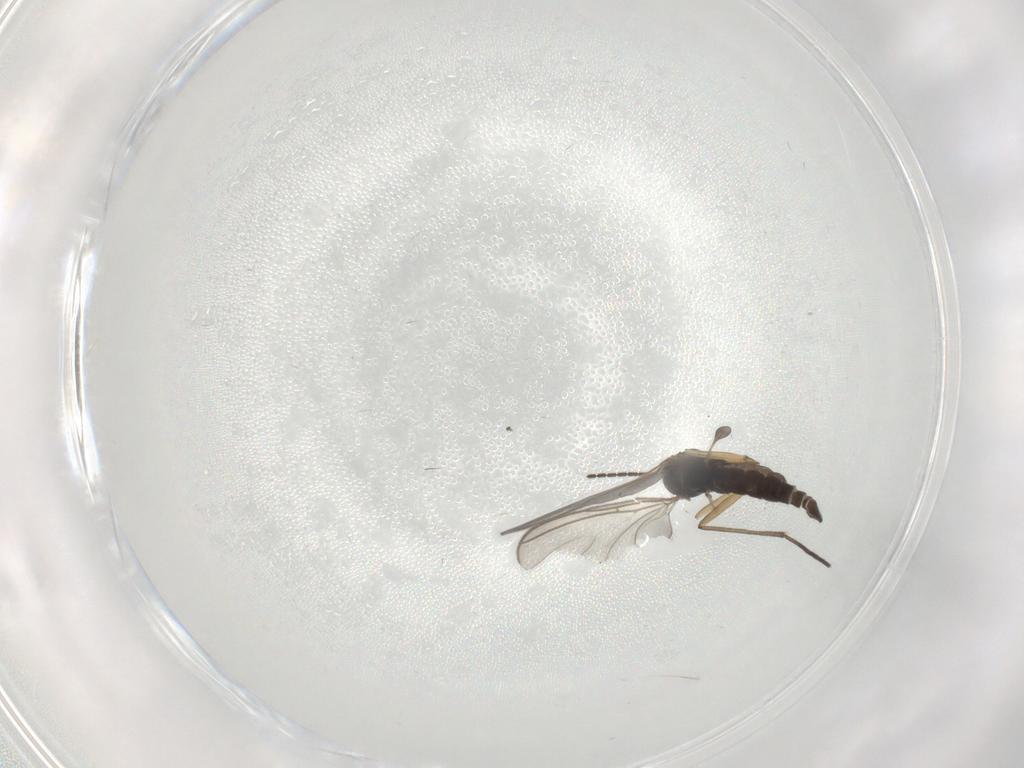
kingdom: Animalia
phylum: Arthropoda
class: Insecta
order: Diptera
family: Sciaridae
